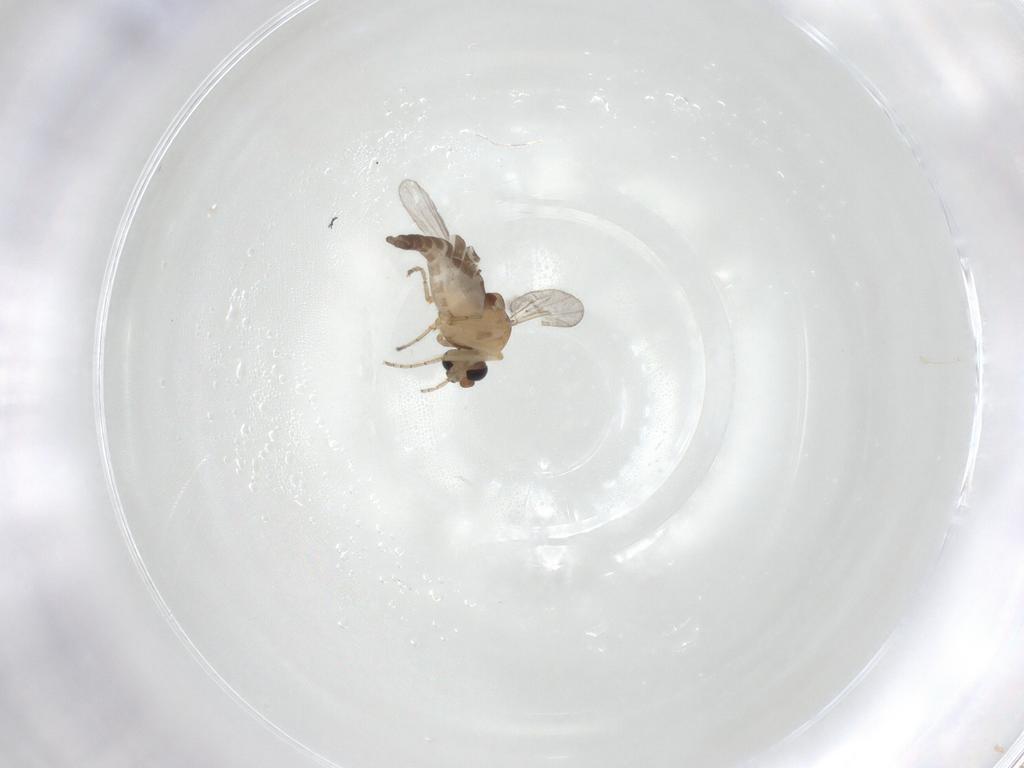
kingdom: Animalia
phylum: Arthropoda
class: Insecta
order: Diptera
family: Ceratopogonidae
